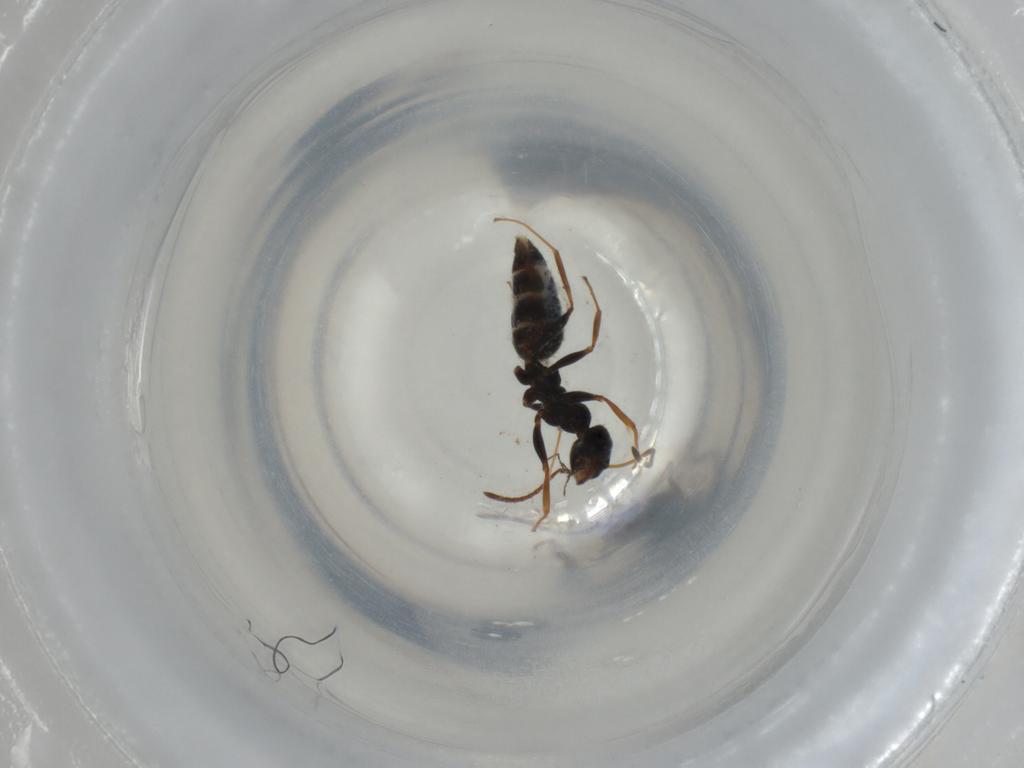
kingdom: Animalia
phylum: Arthropoda
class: Insecta
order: Hymenoptera
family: Formicidae
